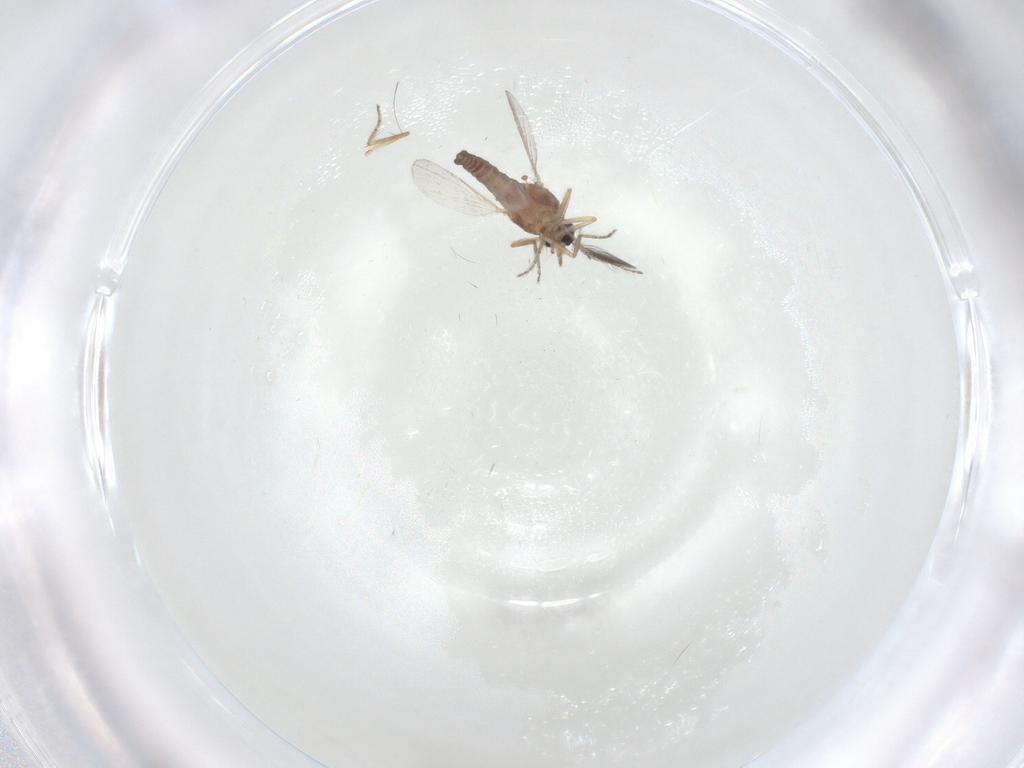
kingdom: Animalia
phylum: Arthropoda
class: Insecta
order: Diptera
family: Ceratopogonidae
